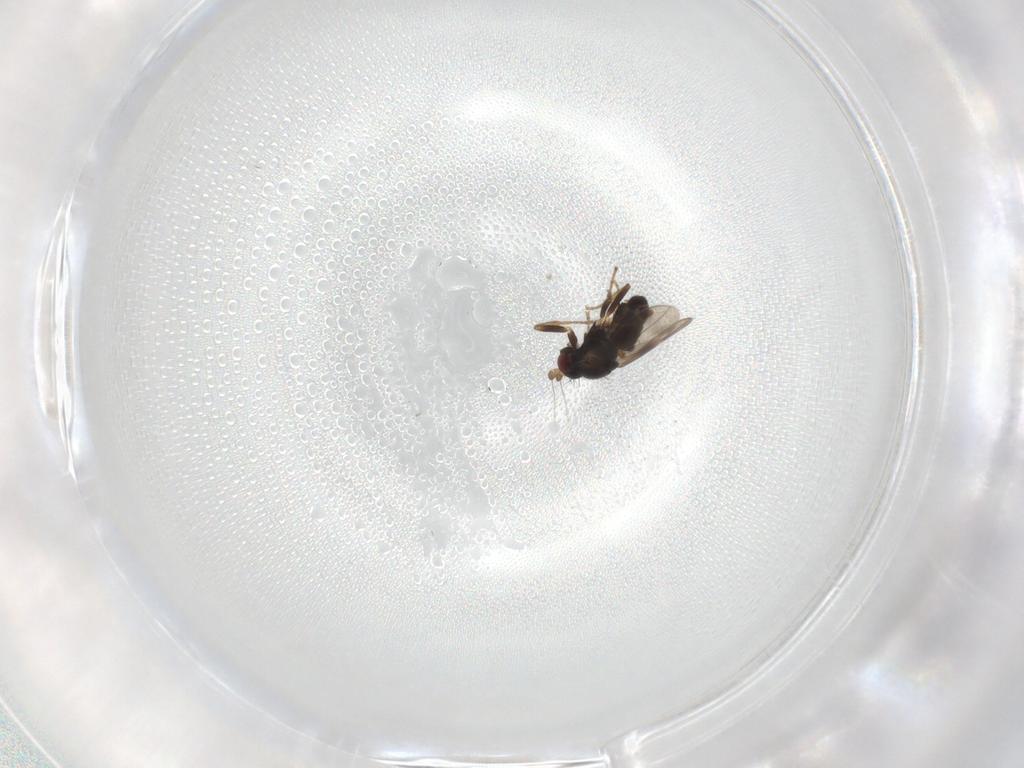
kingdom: Animalia
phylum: Arthropoda
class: Insecta
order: Diptera
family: Sphaeroceridae
